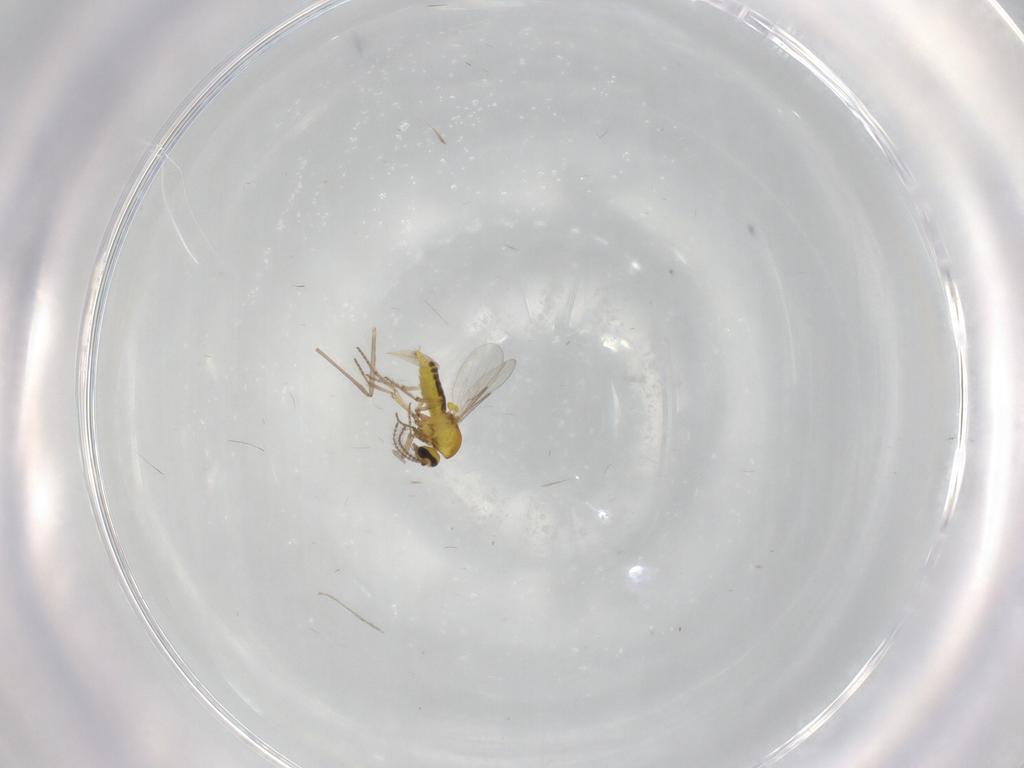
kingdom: Animalia
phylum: Arthropoda
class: Insecta
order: Diptera
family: Chironomidae
